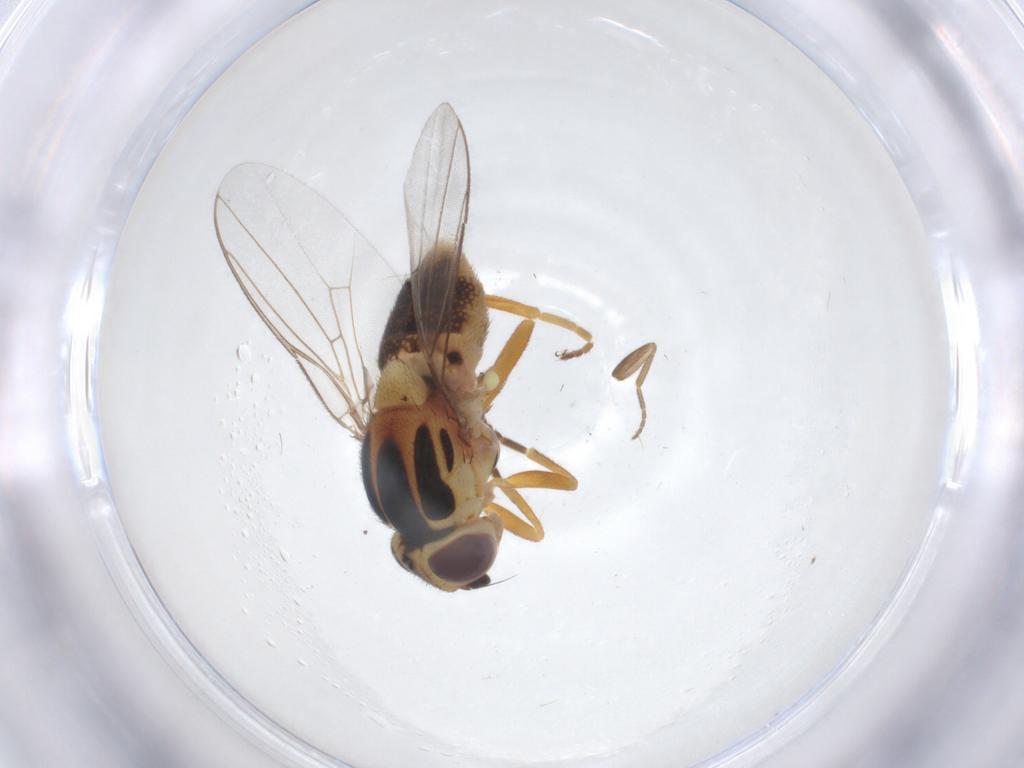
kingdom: Animalia
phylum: Arthropoda
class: Insecta
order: Diptera
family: Chloropidae
